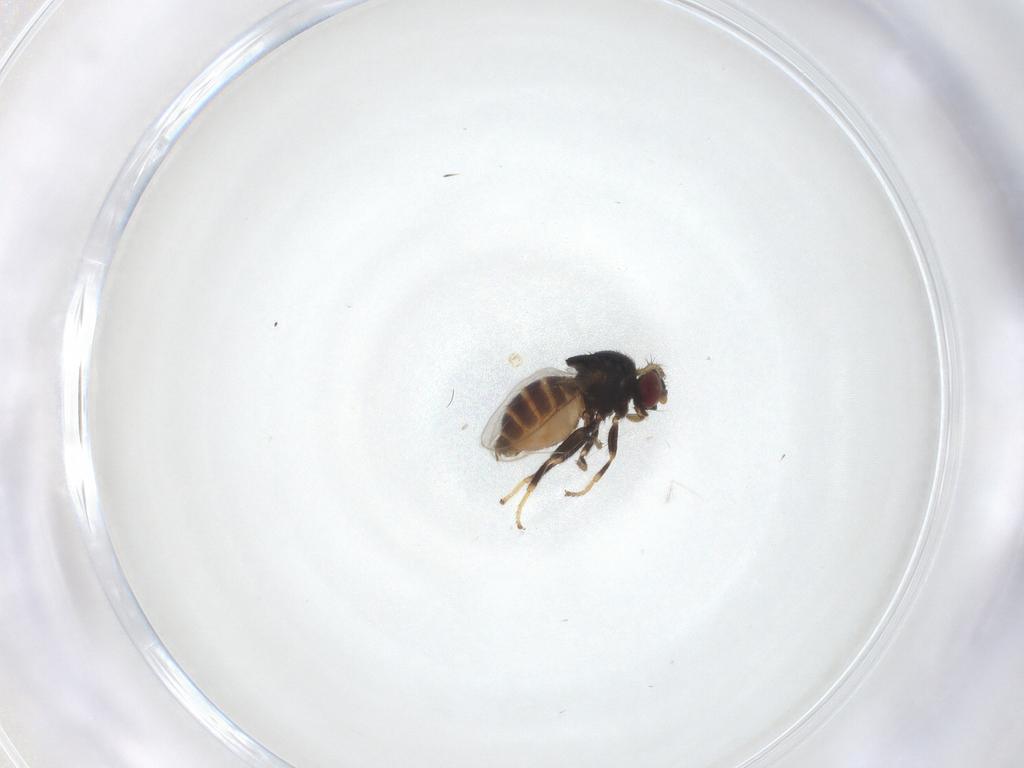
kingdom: Animalia
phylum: Arthropoda
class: Insecta
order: Diptera
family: Chloropidae
